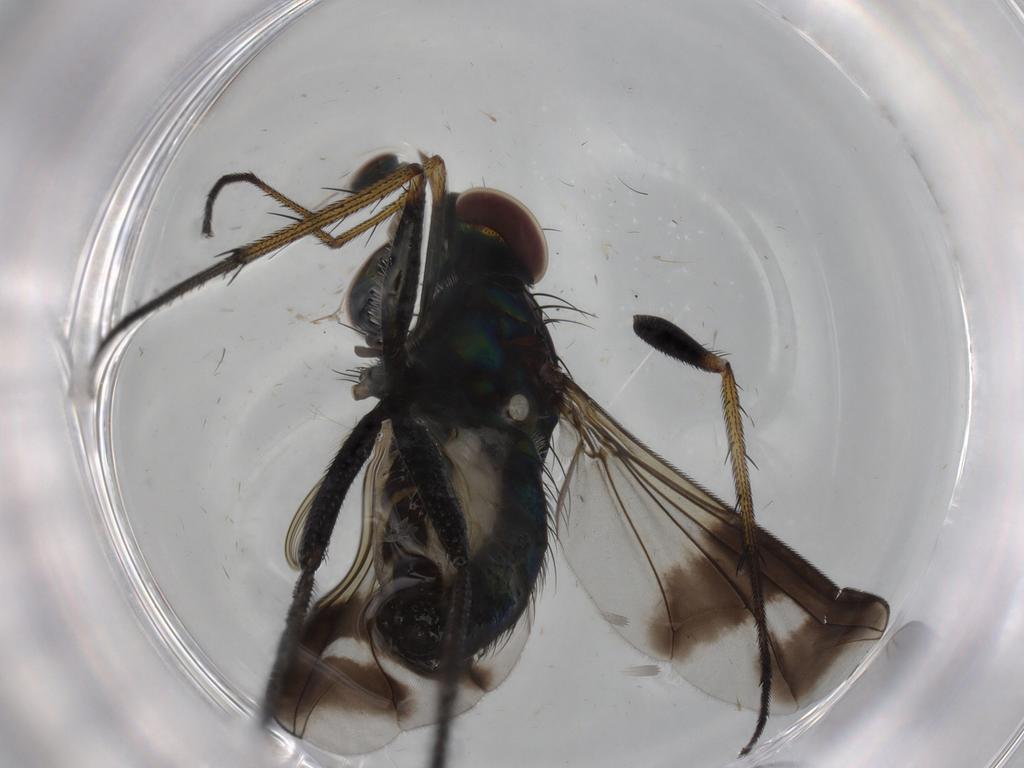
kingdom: Animalia
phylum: Arthropoda
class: Insecta
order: Diptera
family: Dolichopodidae
